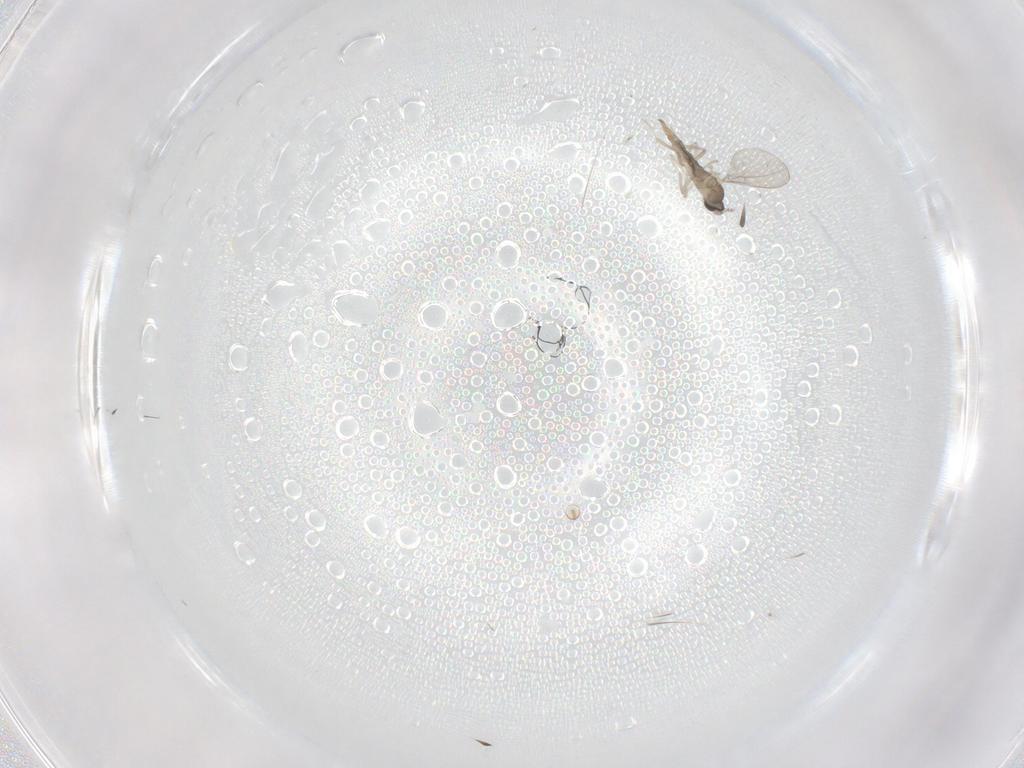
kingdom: Animalia
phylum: Arthropoda
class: Insecta
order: Diptera
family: Cecidomyiidae
